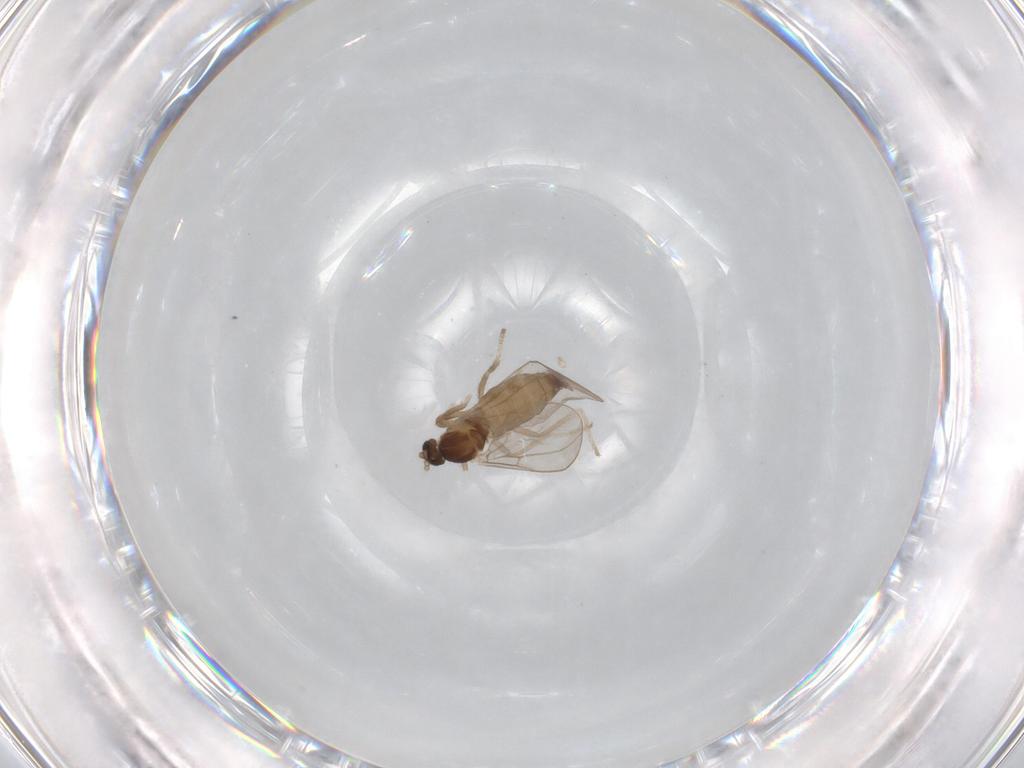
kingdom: Animalia
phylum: Arthropoda
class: Insecta
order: Diptera
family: Cecidomyiidae
